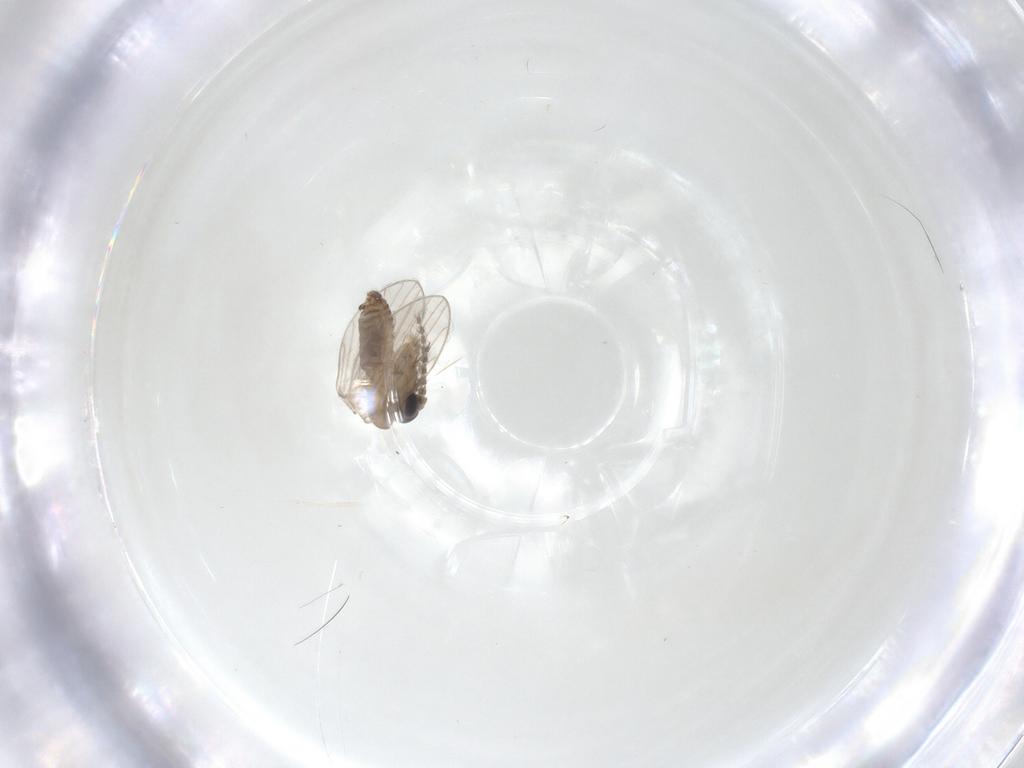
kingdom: Animalia
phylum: Arthropoda
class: Insecta
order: Diptera
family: Psychodidae
